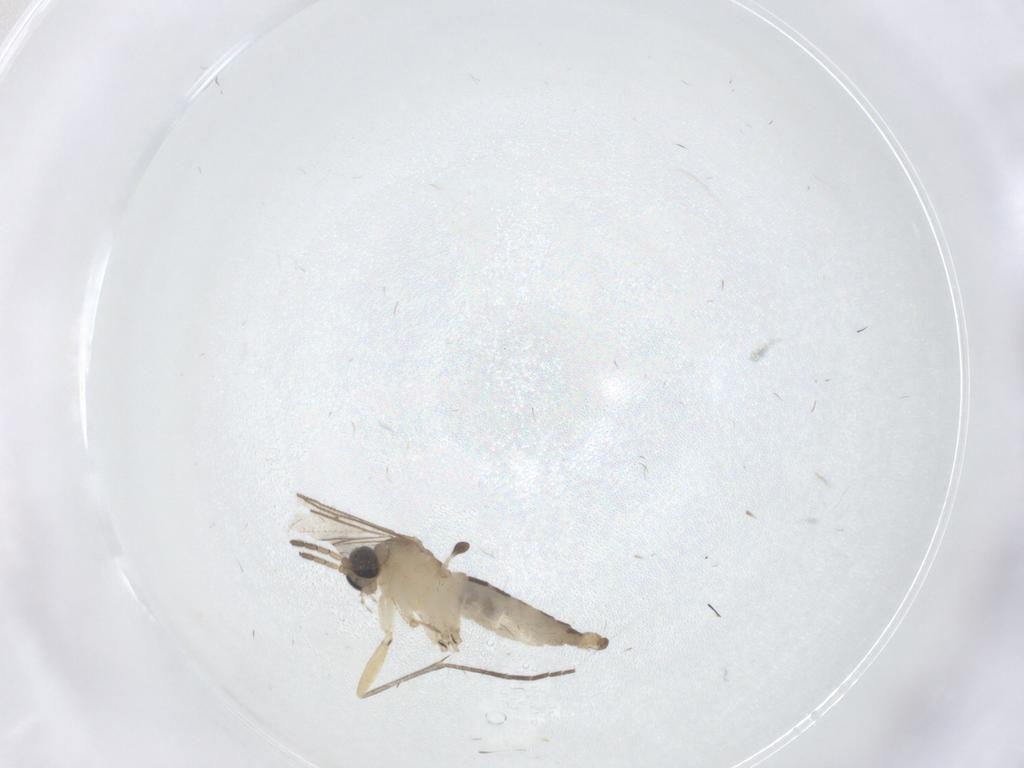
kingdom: Animalia
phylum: Arthropoda
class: Insecta
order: Diptera
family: Sciaridae
